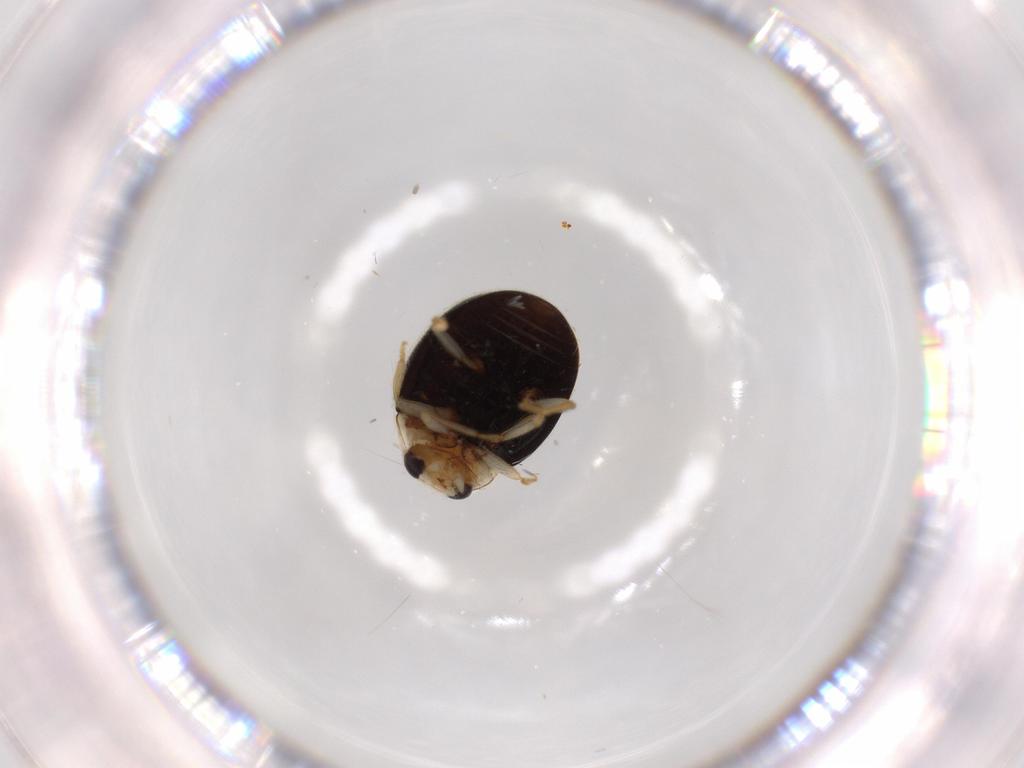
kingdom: Animalia
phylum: Arthropoda
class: Insecta
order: Coleoptera
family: Coccinellidae
